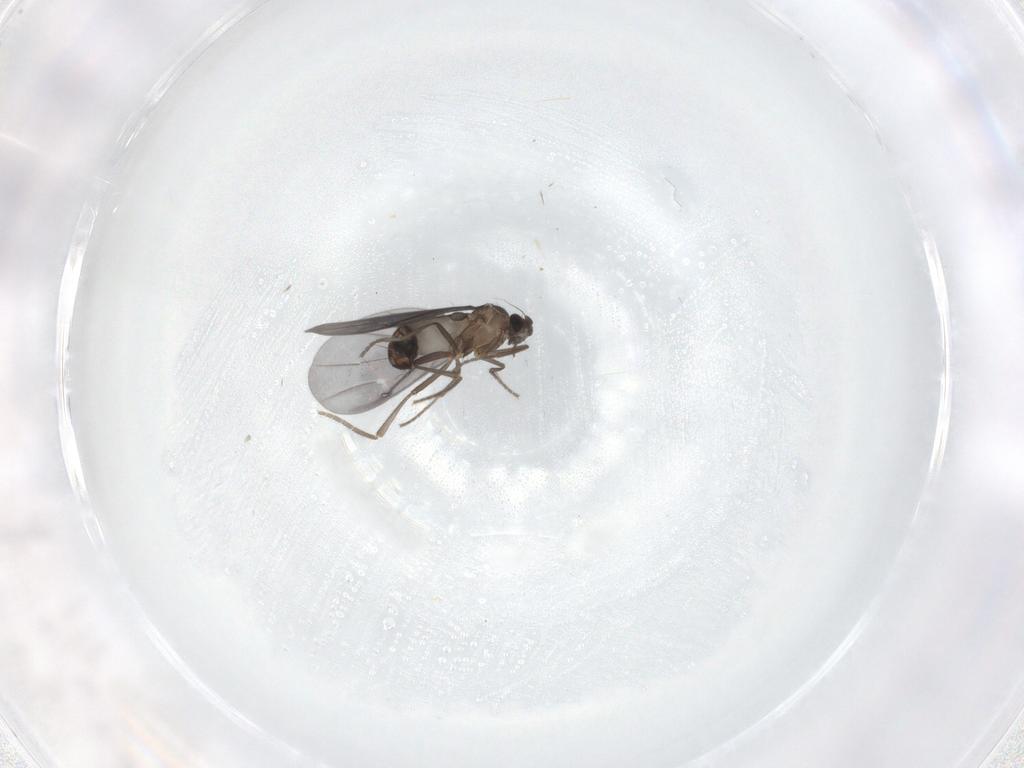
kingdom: Animalia
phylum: Arthropoda
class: Insecta
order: Diptera
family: Phoridae
